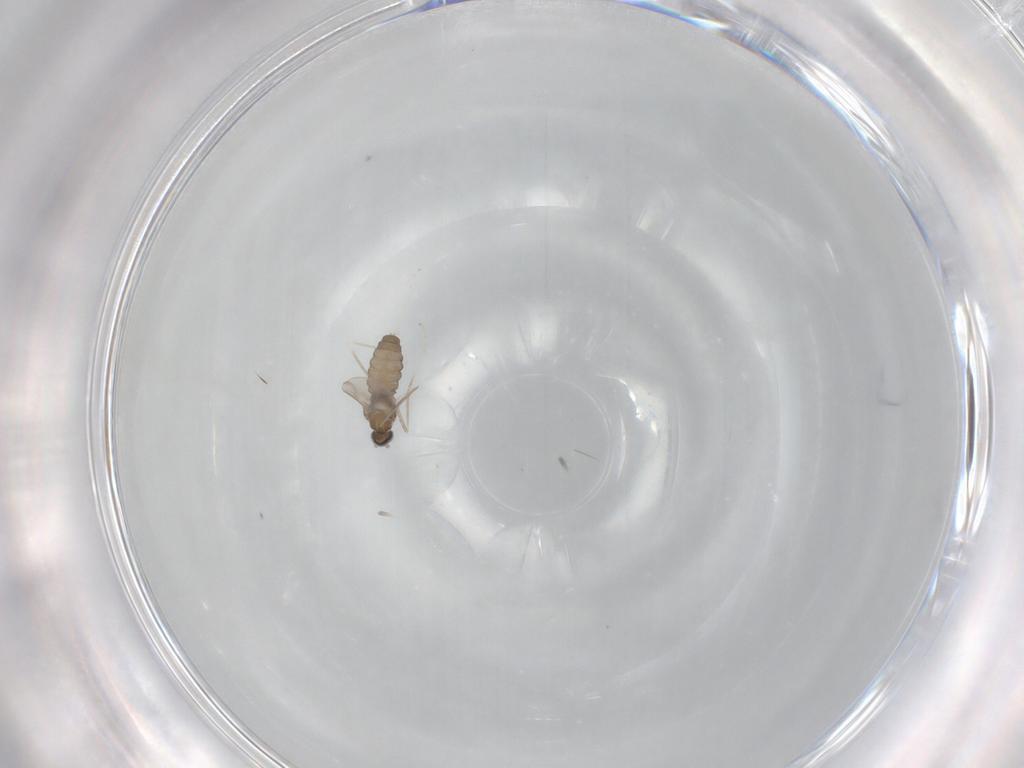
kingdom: Animalia
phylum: Arthropoda
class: Insecta
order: Diptera
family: Cecidomyiidae
